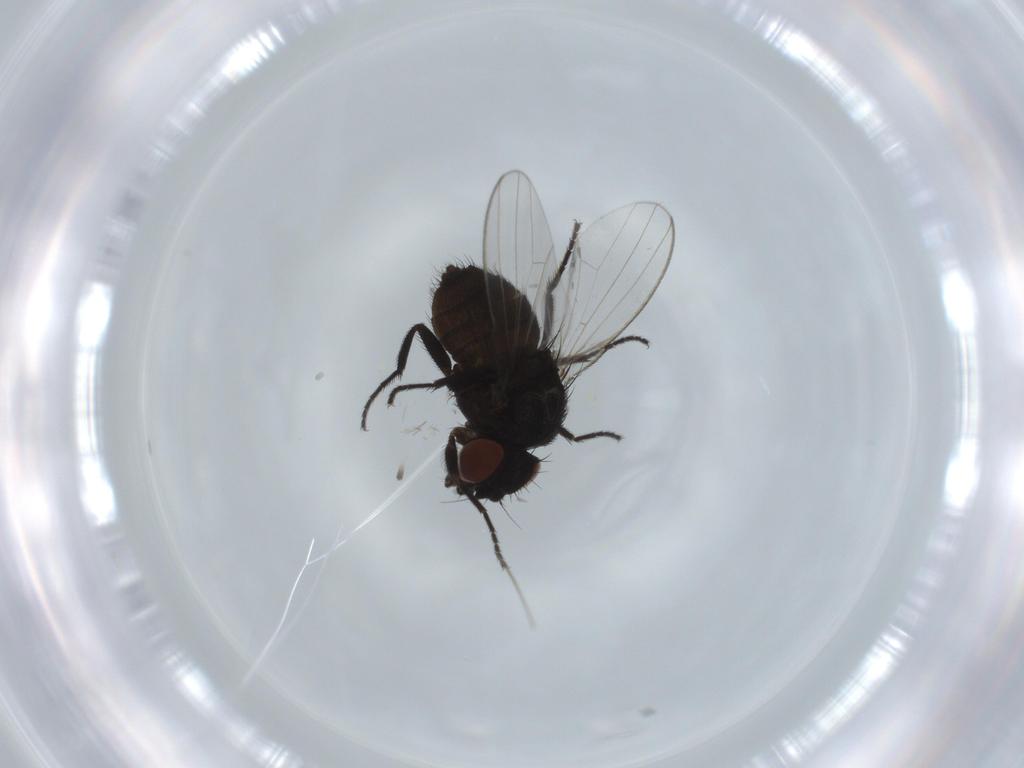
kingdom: Animalia
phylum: Arthropoda
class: Insecta
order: Diptera
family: Milichiidae
